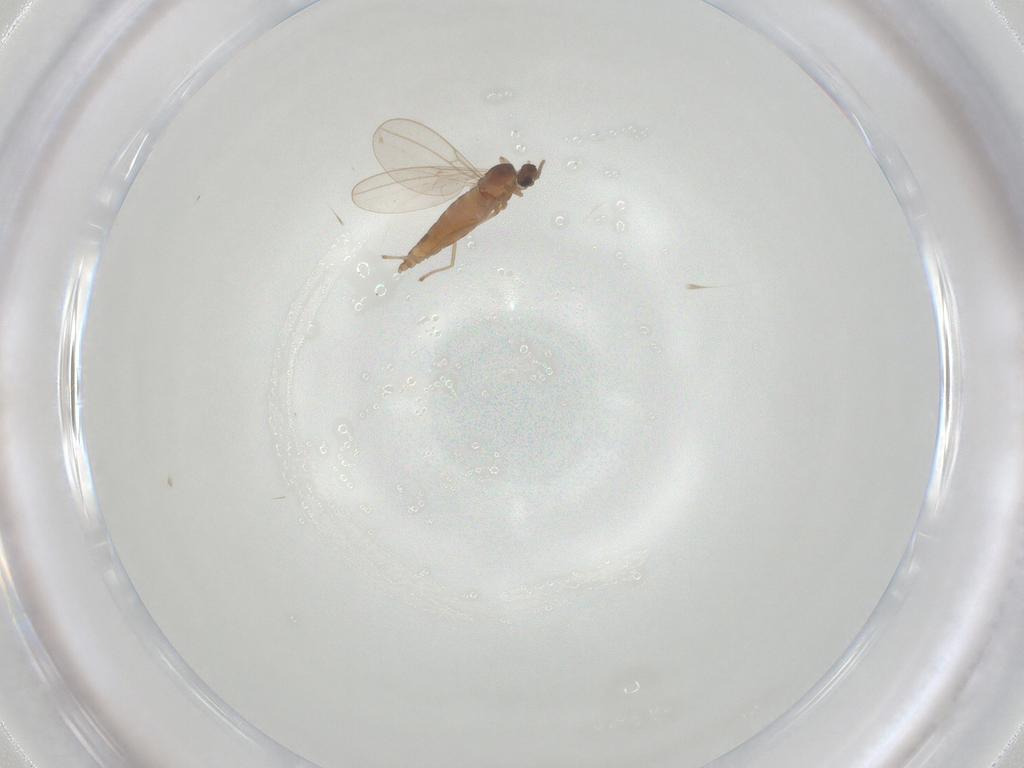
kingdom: Animalia
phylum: Arthropoda
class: Insecta
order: Diptera
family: Cecidomyiidae
